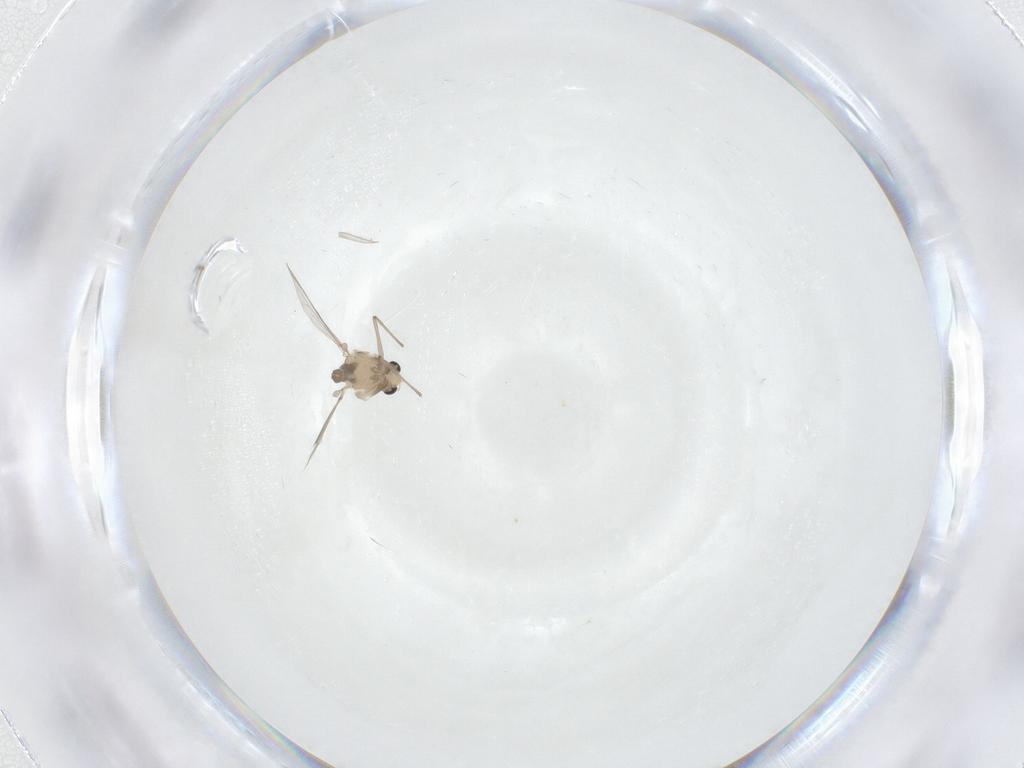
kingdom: Animalia
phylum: Arthropoda
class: Insecta
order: Diptera
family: Chironomidae
